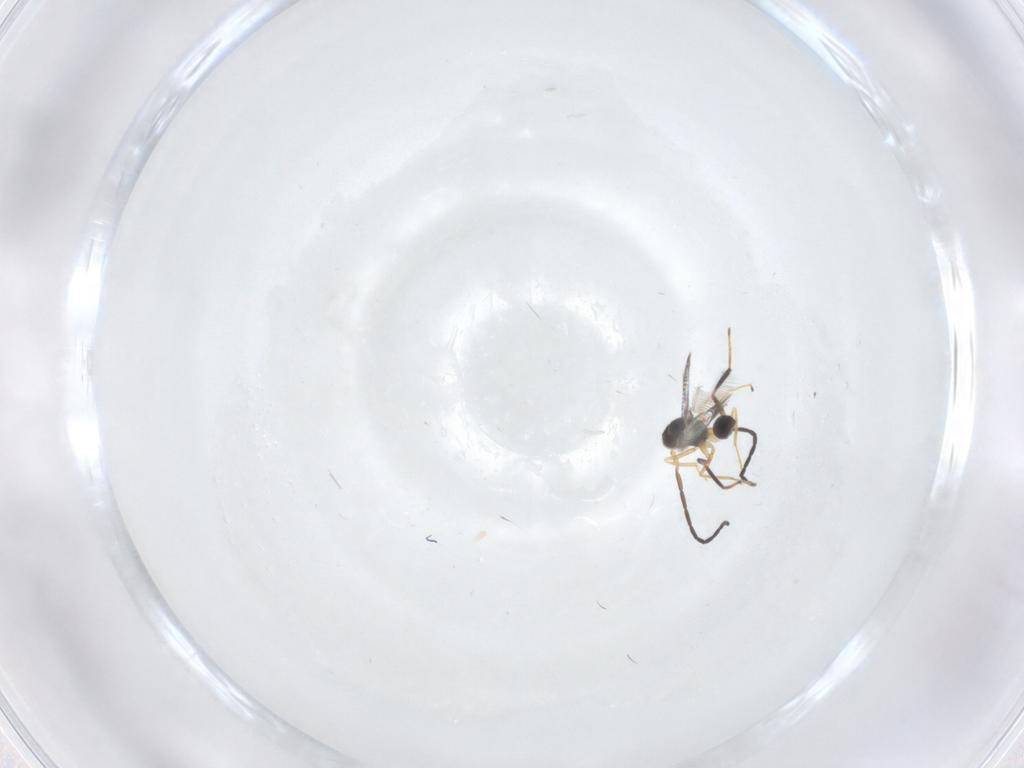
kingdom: Animalia
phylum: Arthropoda
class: Insecta
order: Hymenoptera
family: Mymaridae
